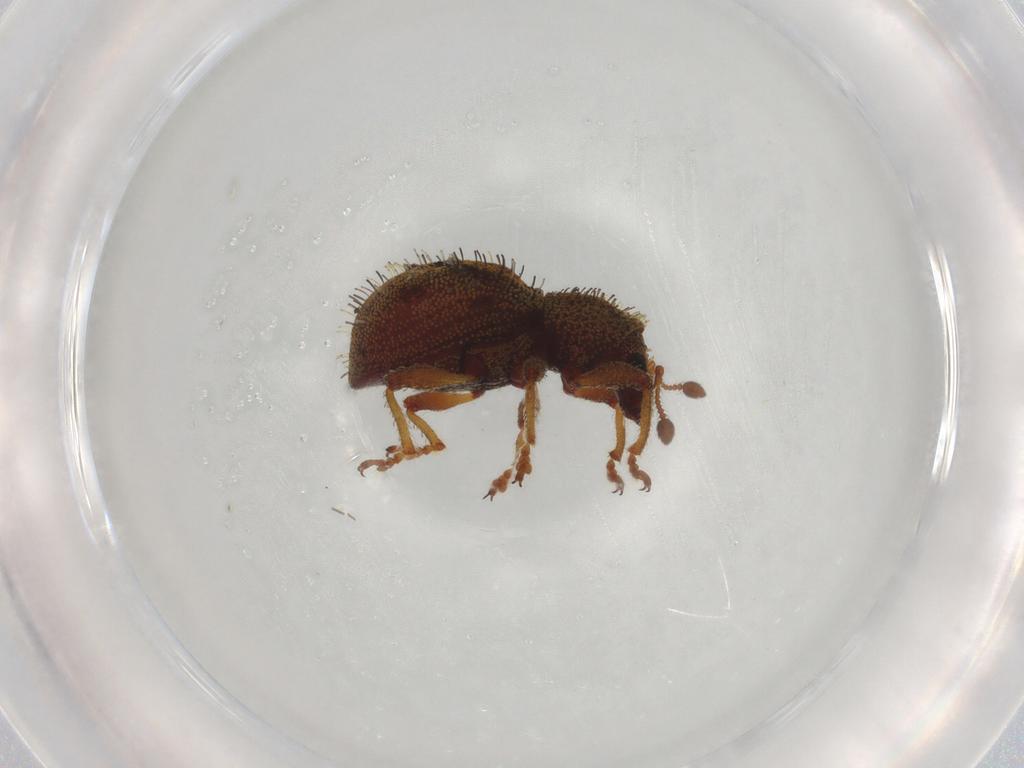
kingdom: Animalia
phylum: Arthropoda
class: Insecta
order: Coleoptera
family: Curculionidae
